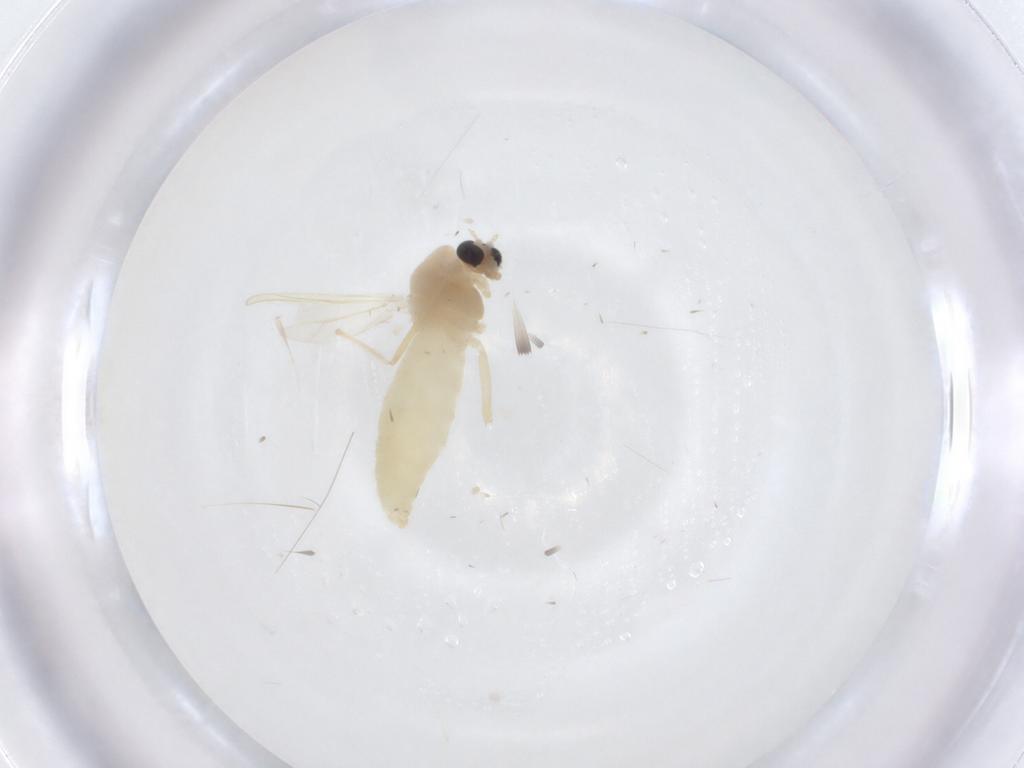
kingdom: Animalia
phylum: Arthropoda
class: Insecta
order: Diptera
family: Chironomidae
